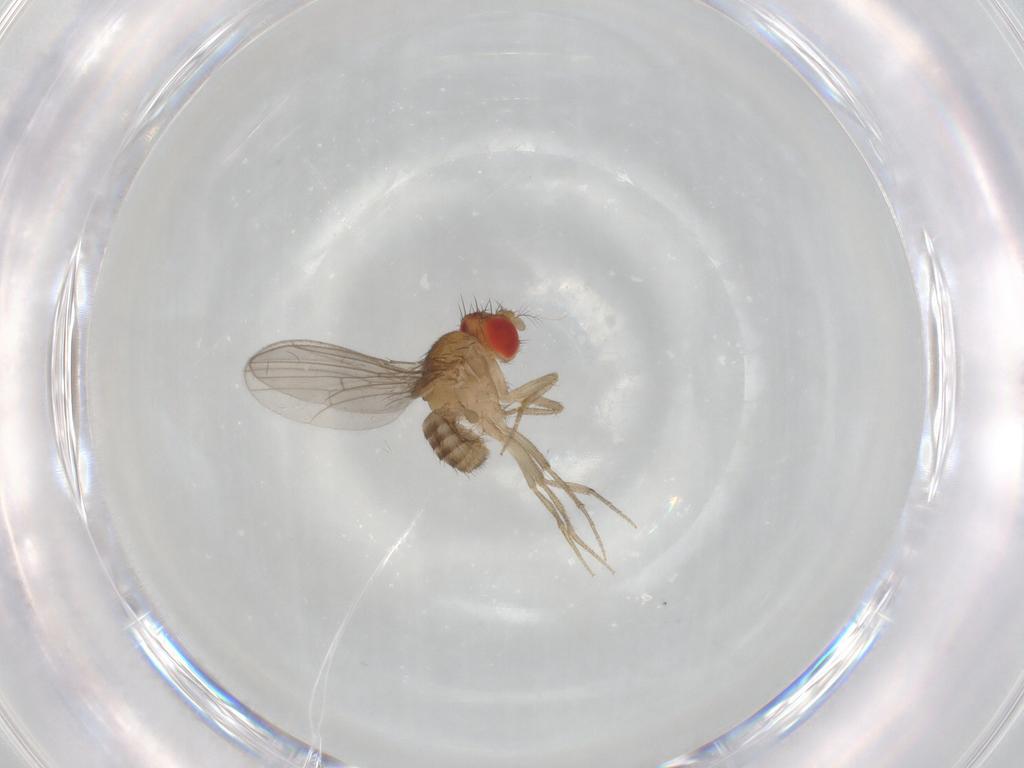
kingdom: Animalia
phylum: Arthropoda
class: Insecta
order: Diptera
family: Drosophilidae
